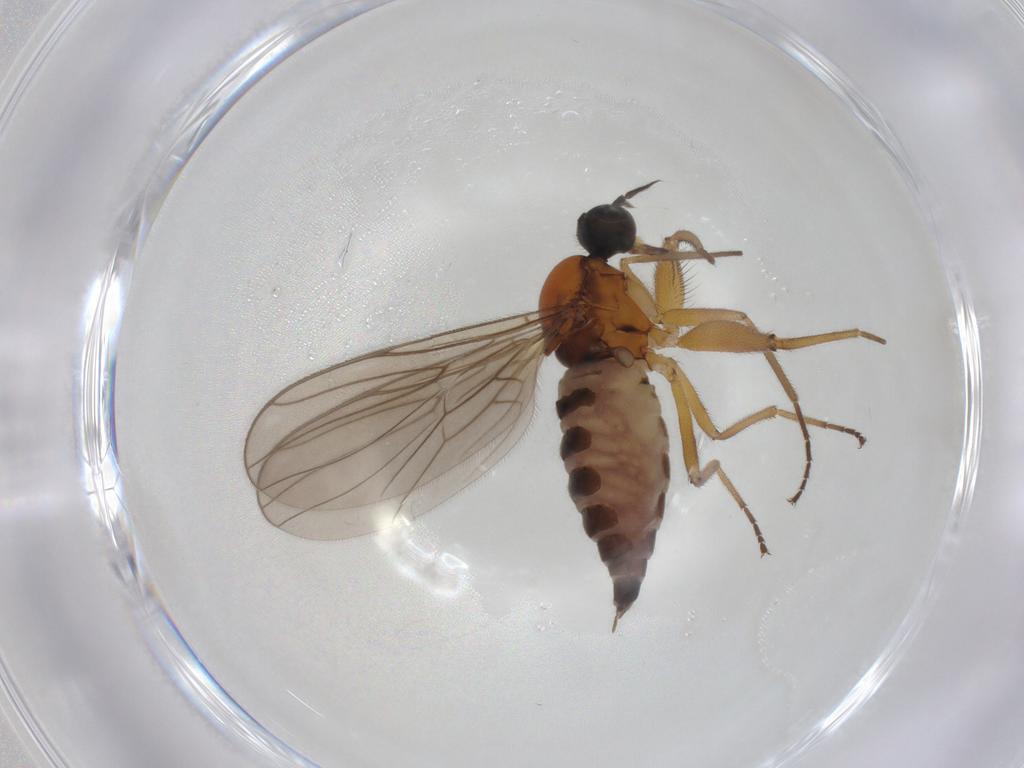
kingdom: Animalia
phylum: Arthropoda
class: Insecta
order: Diptera
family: Hybotidae
